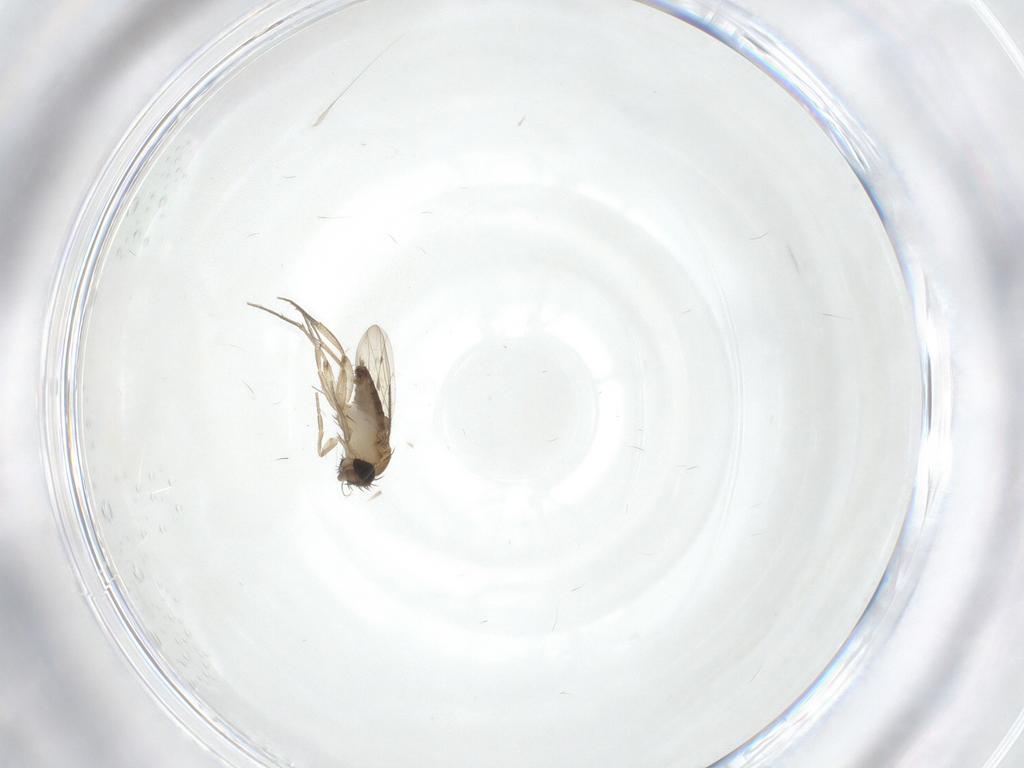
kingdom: Animalia
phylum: Arthropoda
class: Insecta
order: Diptera
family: Phoridae
